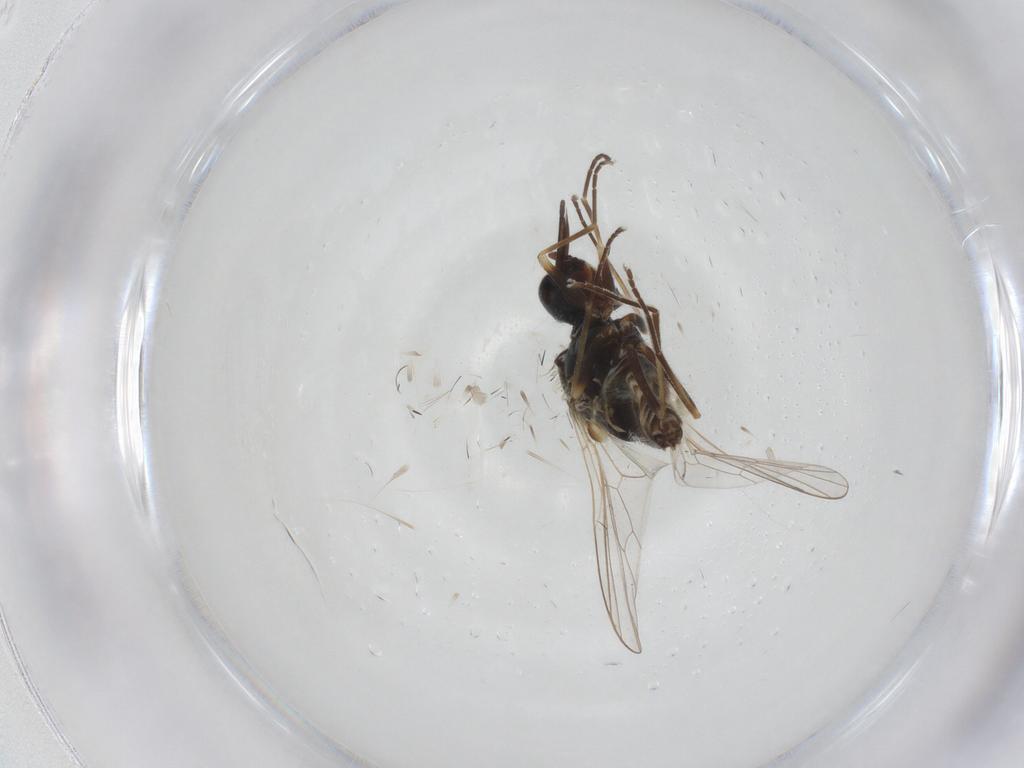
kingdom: Animalia
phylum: Arthropoda
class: Insecta
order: Diptera
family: Bombyliidae
